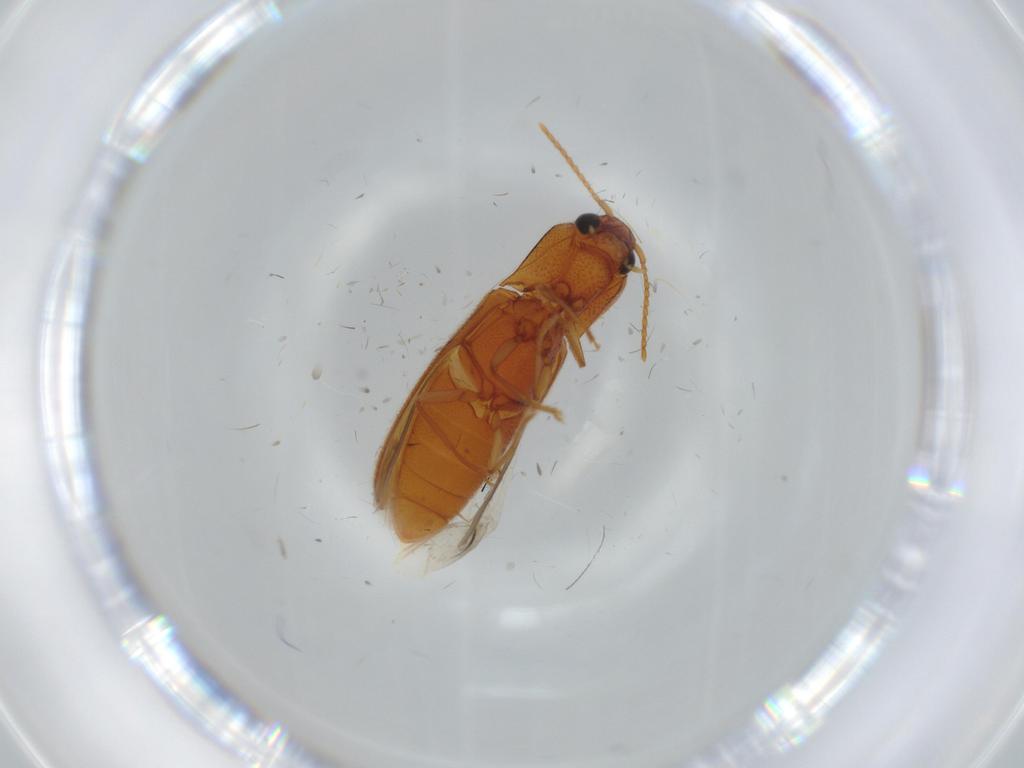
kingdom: Animalia
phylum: Arthropoda
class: Insecta
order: Coleoptera
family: Elateridae
